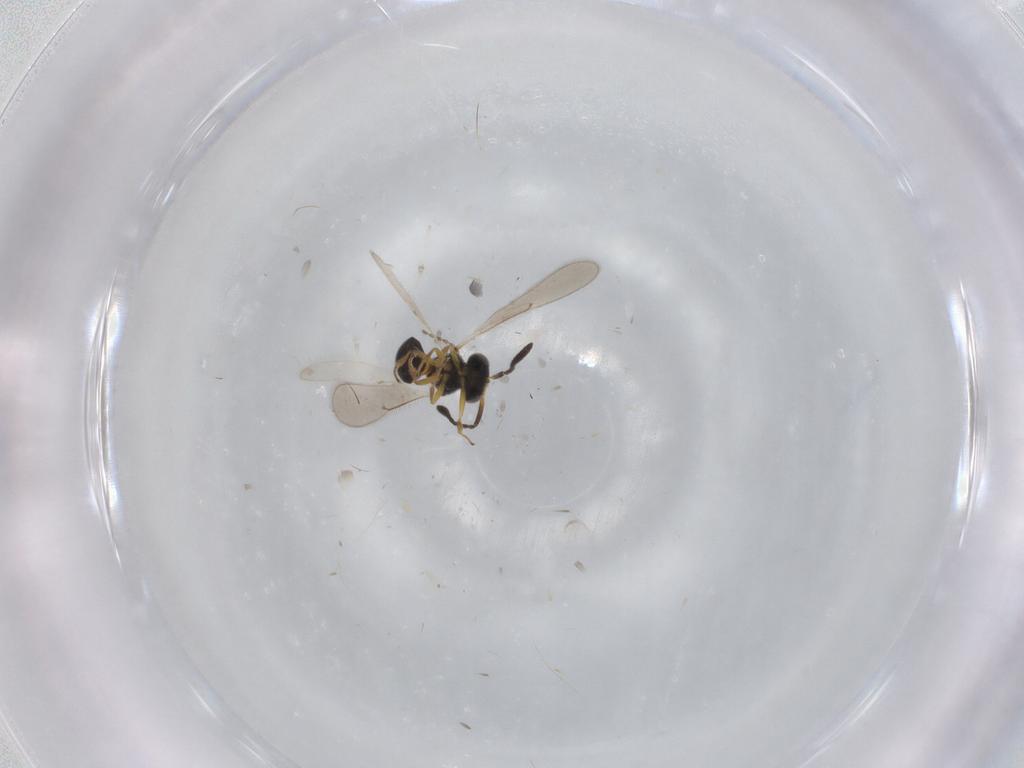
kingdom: Animalia
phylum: Arthropoda
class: Insecta
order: Hymenoptera
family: Scelionidae
